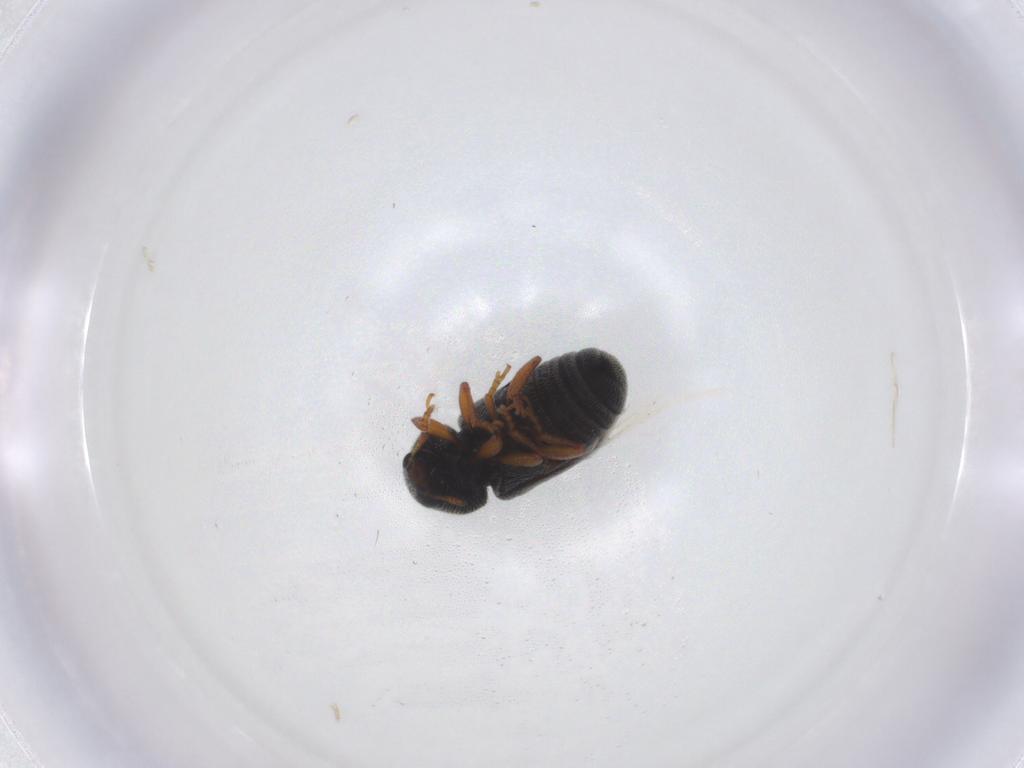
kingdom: Animalia
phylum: Arthropoda
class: Insecta
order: Coleoptera
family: Anthribidae
